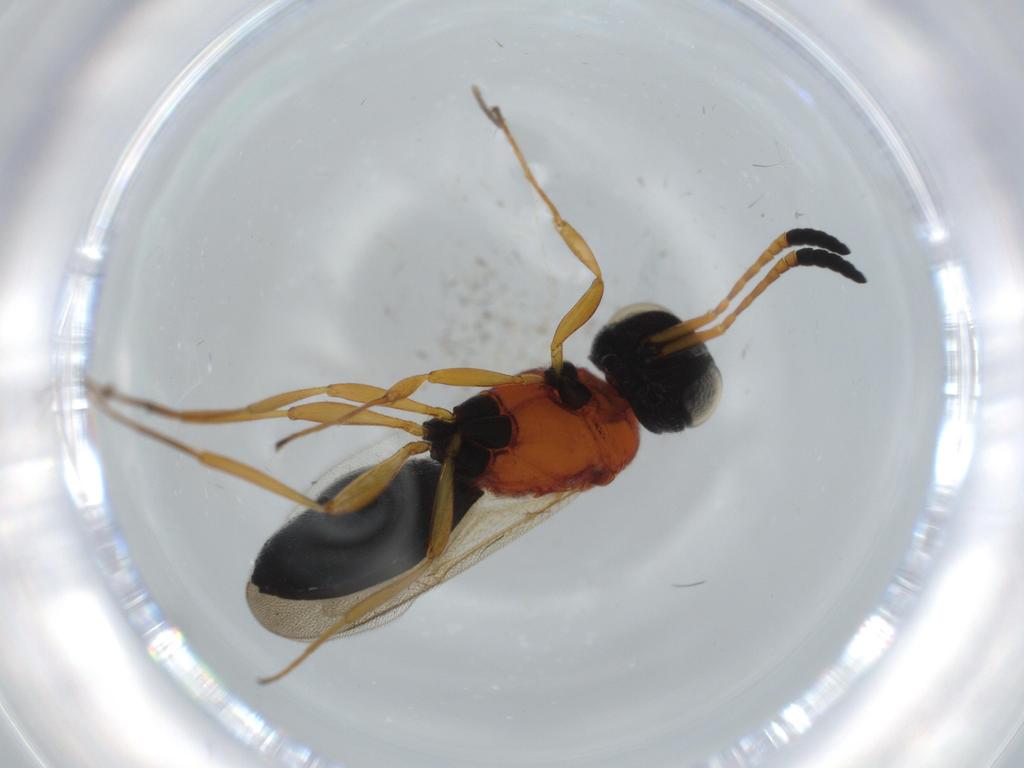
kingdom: Animalia
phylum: Arthropoda
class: Insecta
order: Hymenoptera
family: Scelionidae
